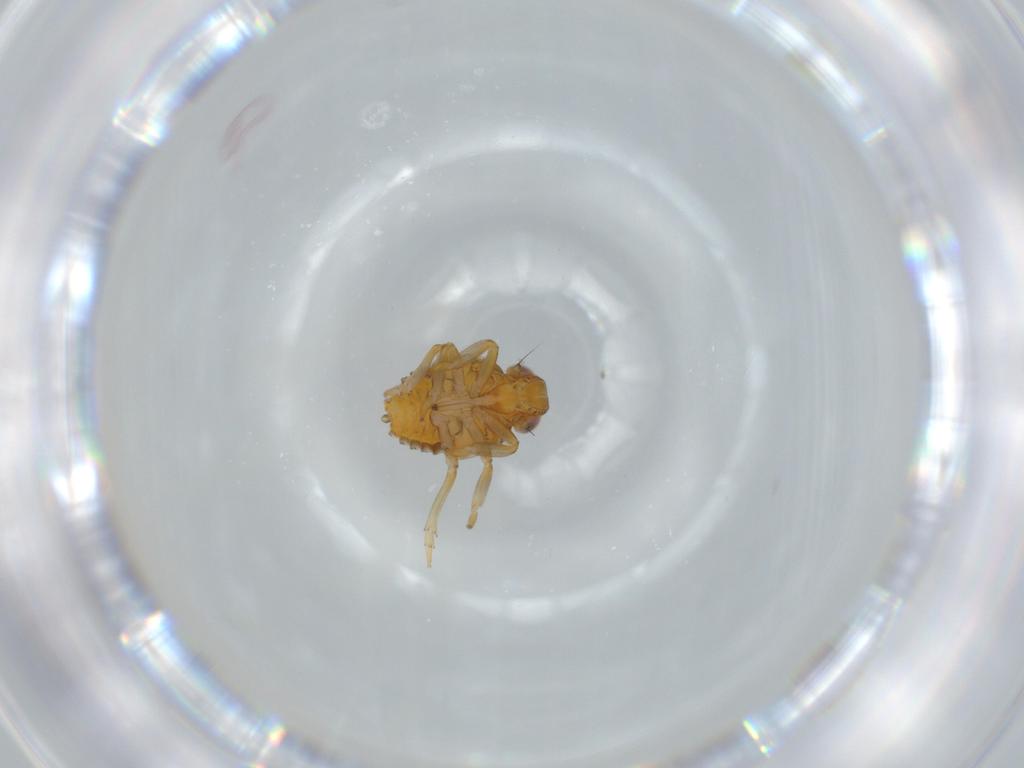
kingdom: Animalia
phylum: Arthropoda
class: Insecta
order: Hemiptera
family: Issidae
